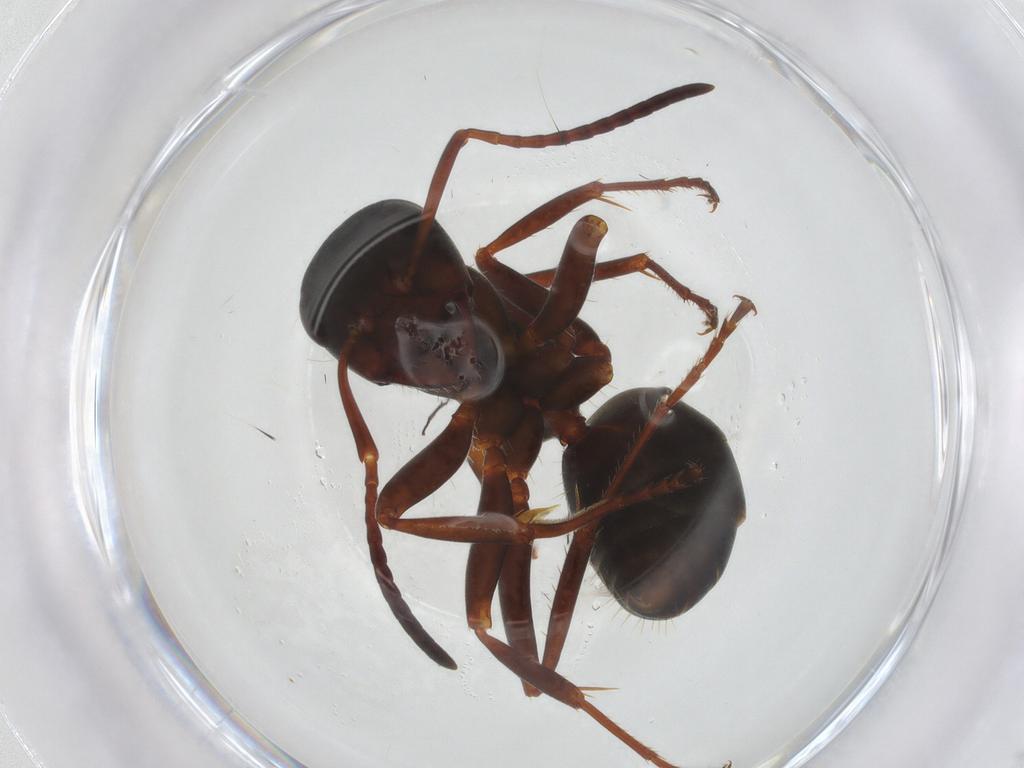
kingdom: Animalia
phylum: Arthropoda
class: Insecta
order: Hymenoptera
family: Formicidae
